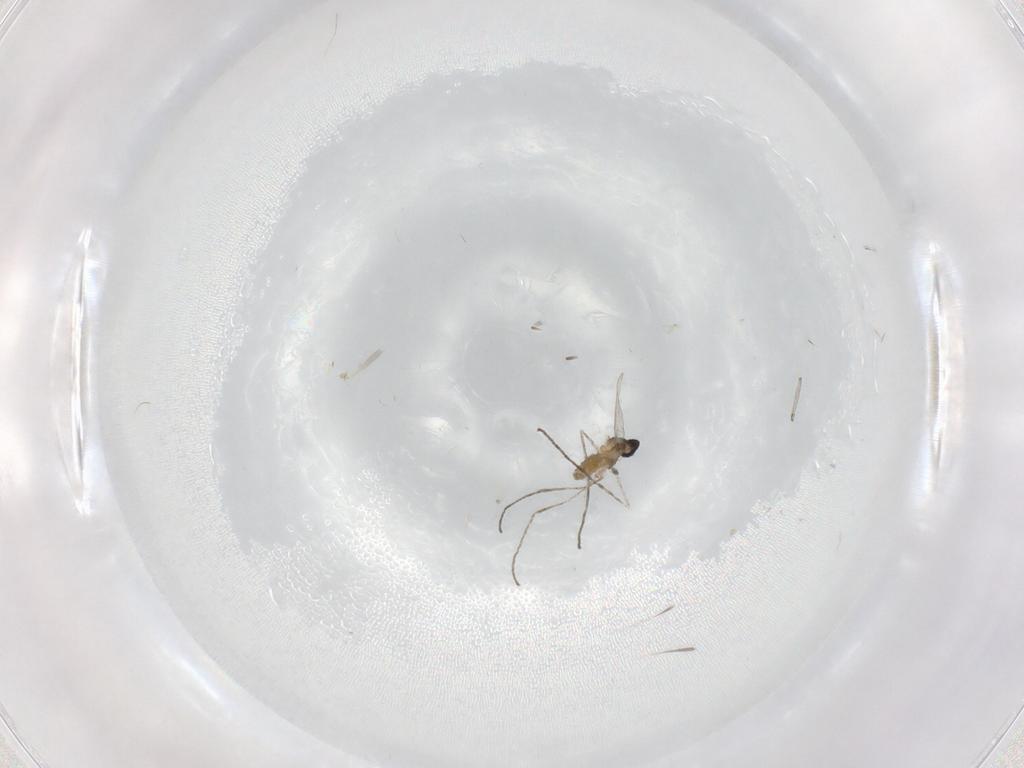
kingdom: Animalia
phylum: Arthropoda
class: Insecta
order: Diptera
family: Cecidomyiidae
